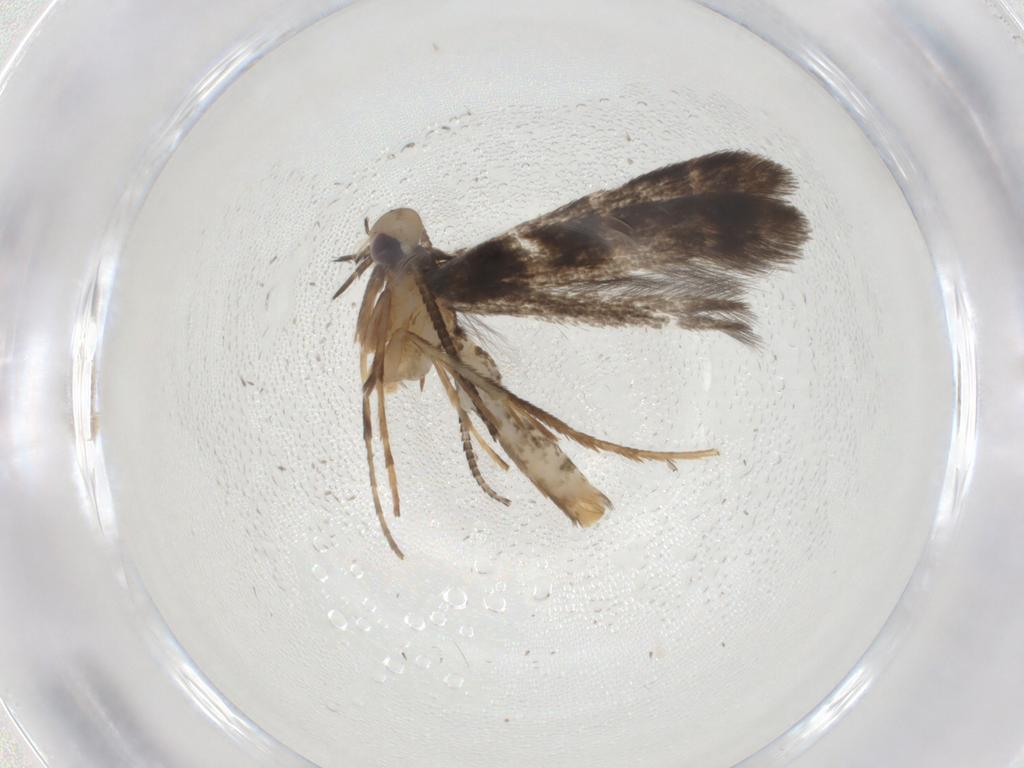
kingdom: Animalia
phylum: Arthropoda
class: Insecta
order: Lepidoptera
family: Gracillariidae
